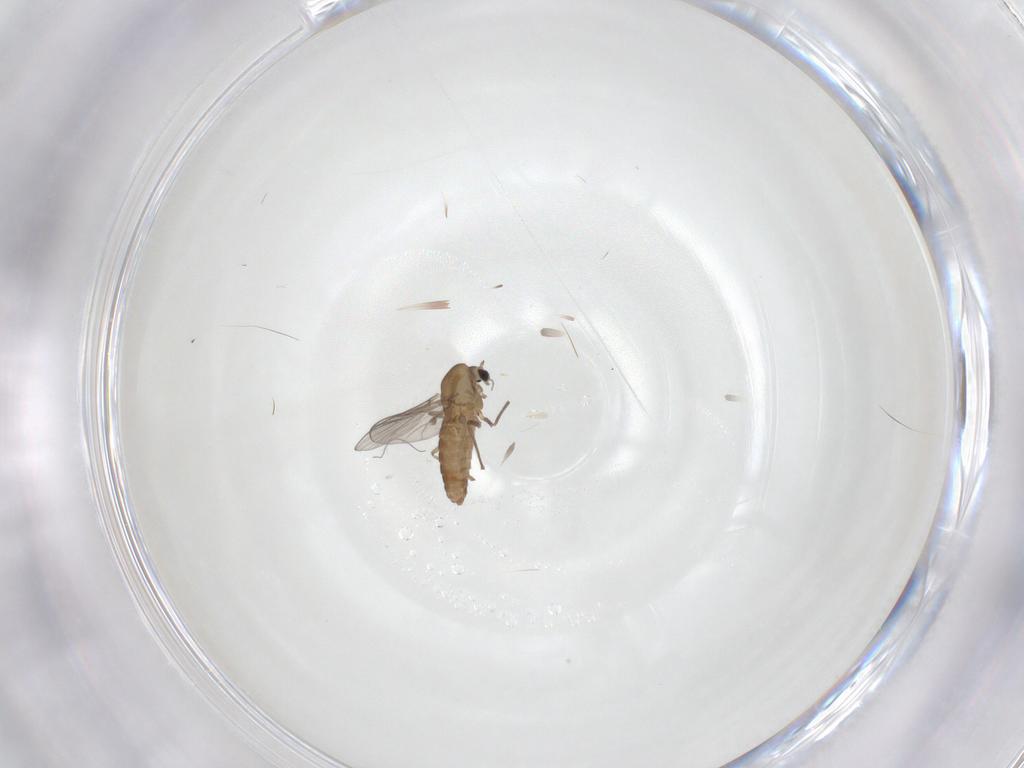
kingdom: Animalia
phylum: Arthropoda
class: Insecta
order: Diptera
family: Chironomidae
